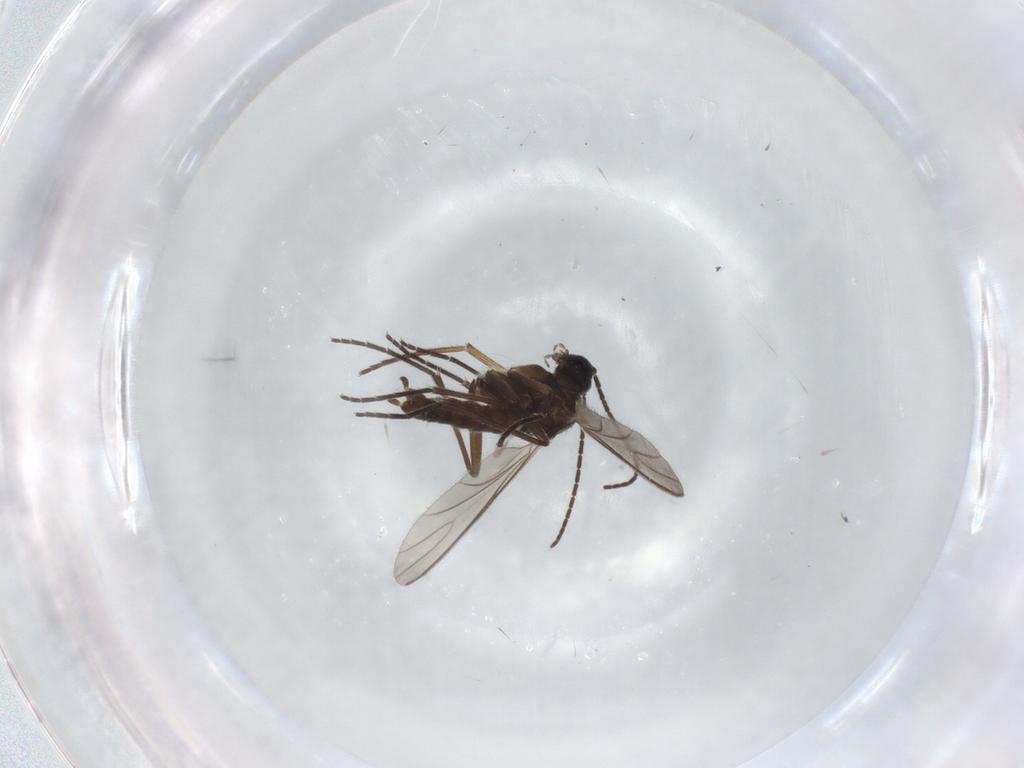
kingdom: Animalia
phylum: Arthropoda
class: Insecta
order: Diptera
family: Sciaridae
